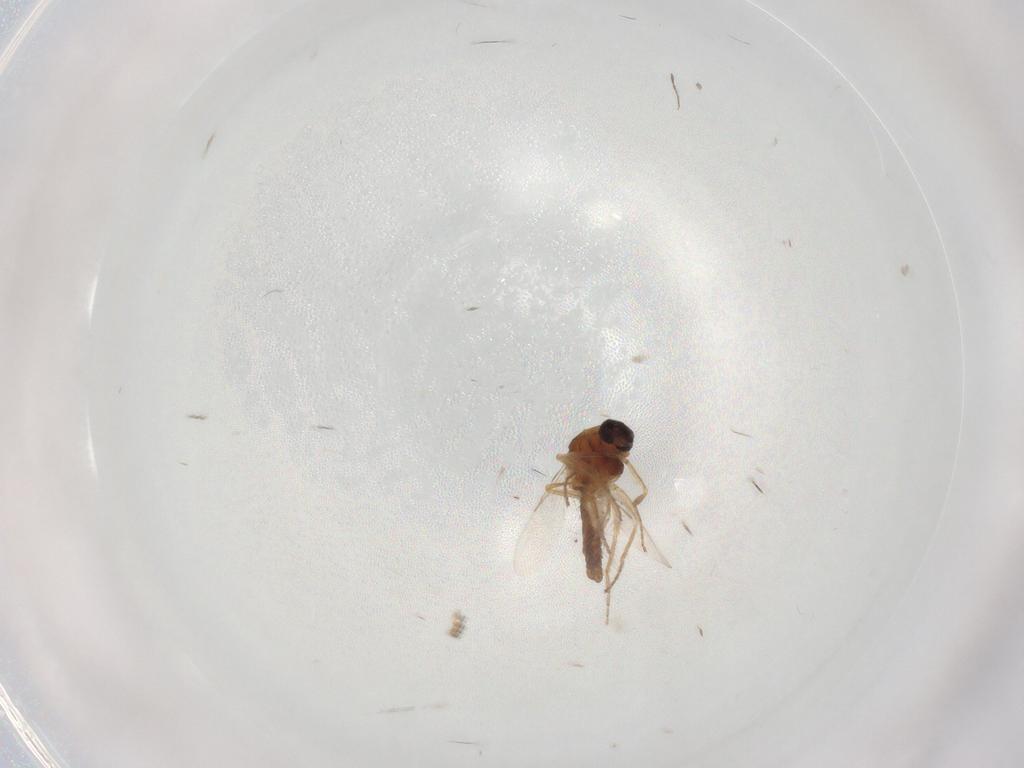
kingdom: Animalia
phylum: Arthropoda
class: Insecta
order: Diptera
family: Ceratopogonidae
